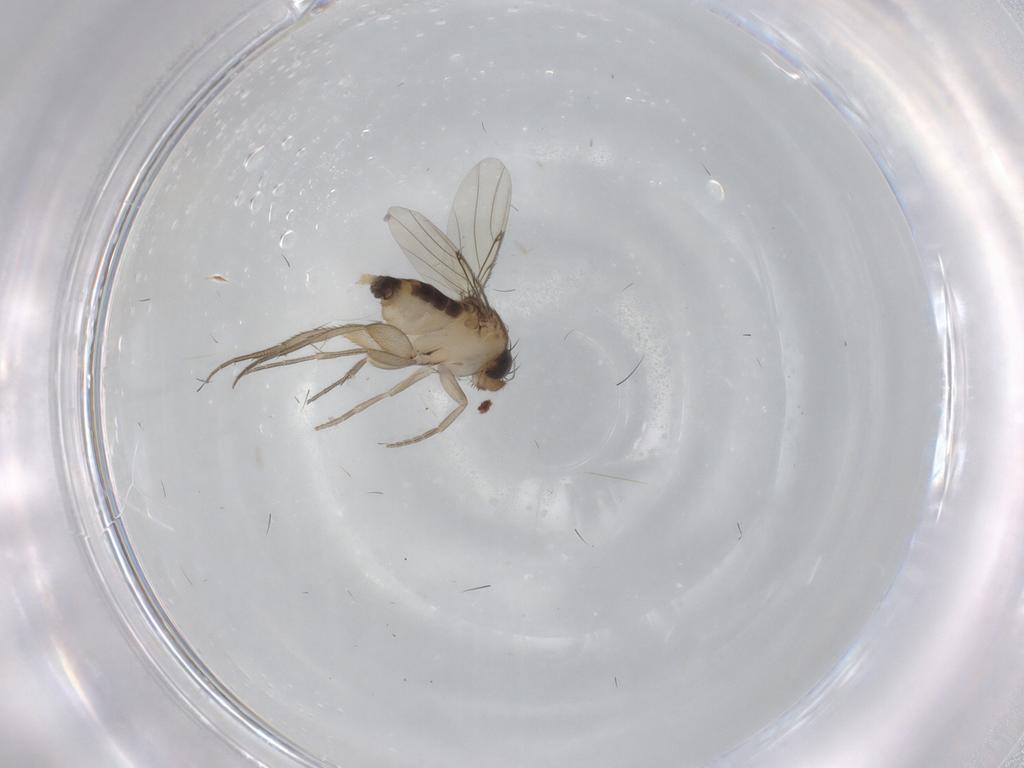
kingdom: Animalia
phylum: Arthropoda
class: Insecta
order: Diptera
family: Phoridae
